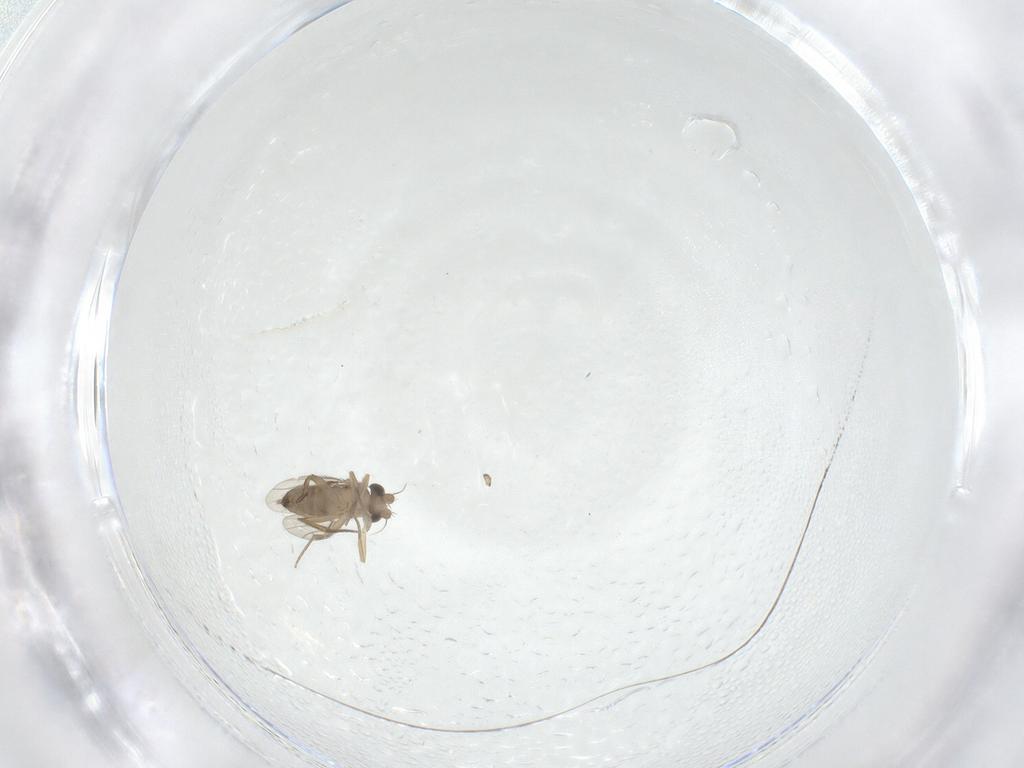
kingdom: Animalia
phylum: Arthropoda
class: Insecta
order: Diptera
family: Phoridae
